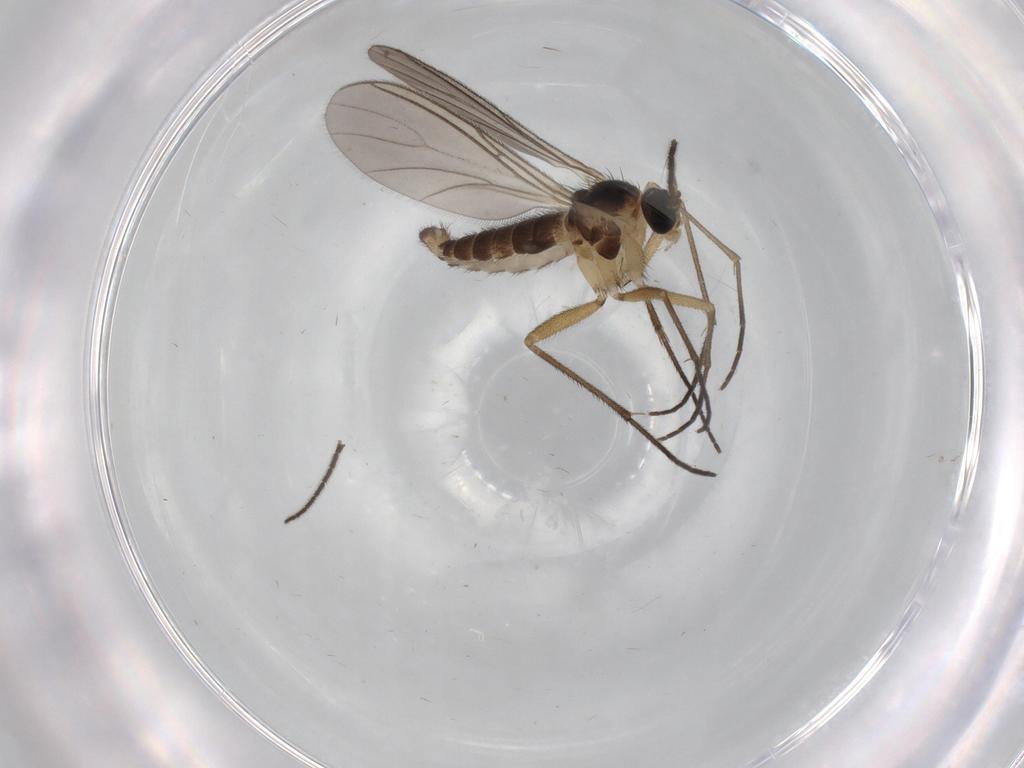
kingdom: Animalia
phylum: Arthropoda
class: Insecta
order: Diptera
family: Sciaridae
